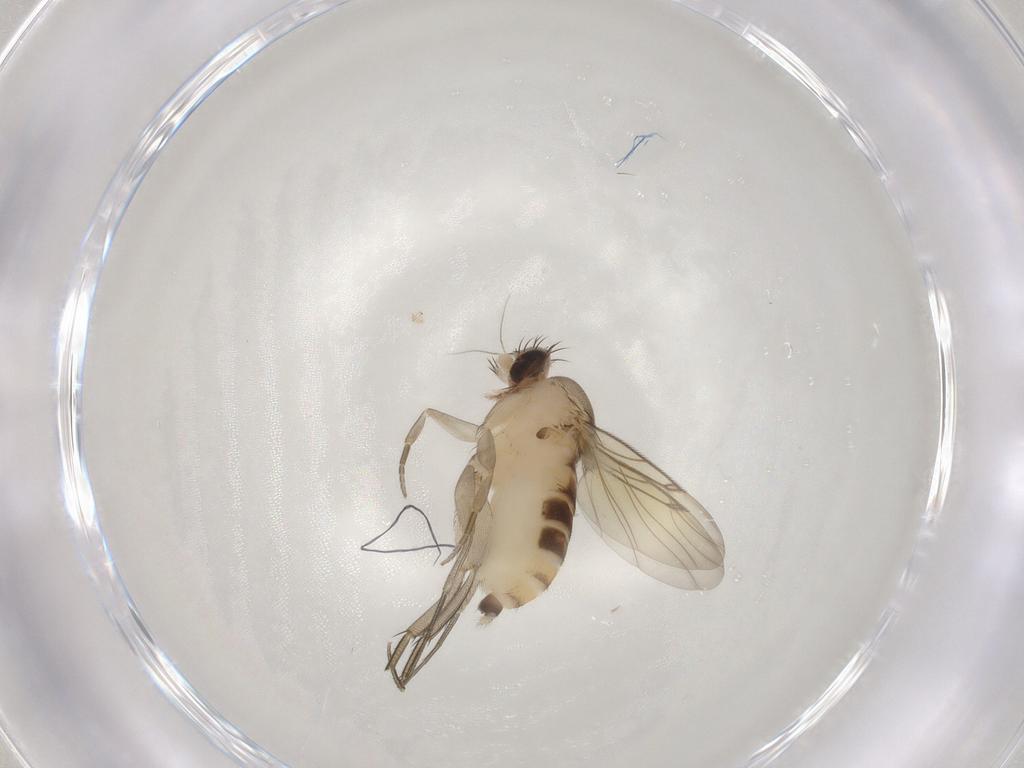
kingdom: Animalia
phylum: Arthropoda
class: Insecta
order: Diptera
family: Phoridae
